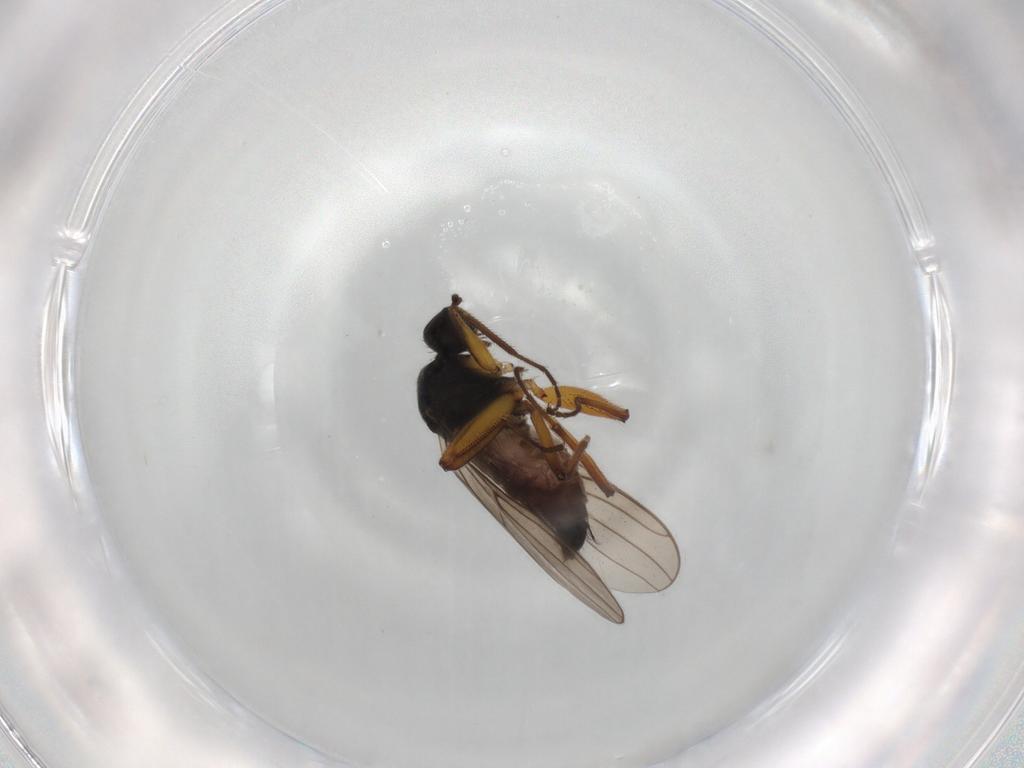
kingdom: Animalia
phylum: Arthropoda
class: Insecta
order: Diptera
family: Hybotidae
